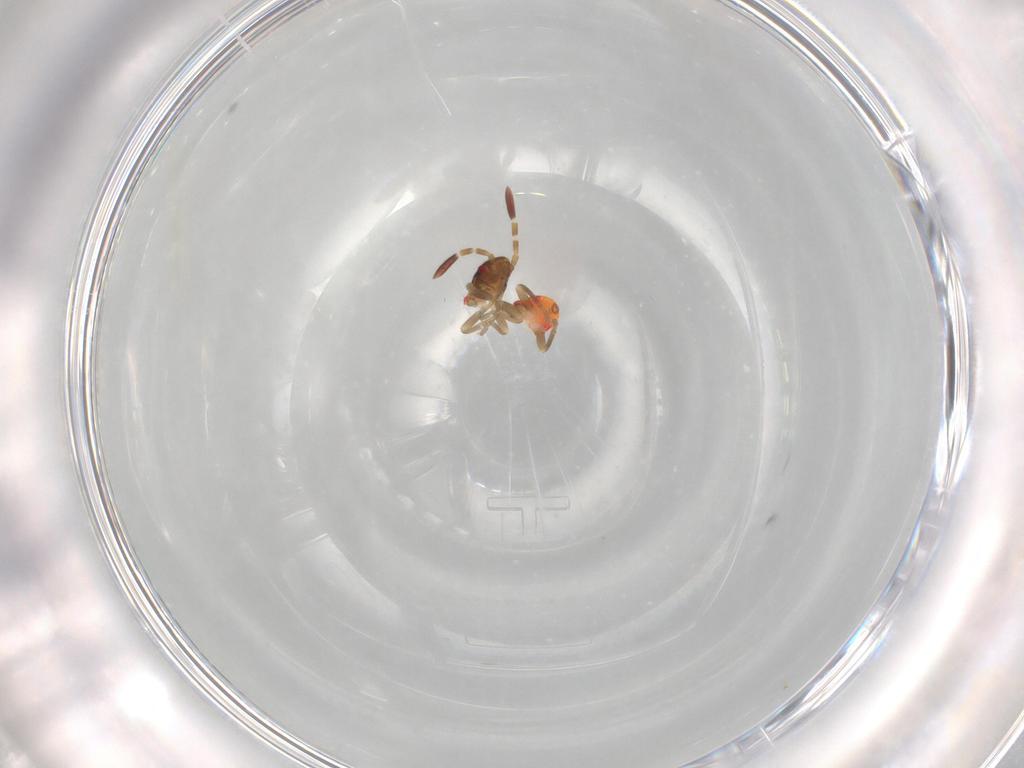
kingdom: Animalia
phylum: Arthropoda
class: Insecta
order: Hemiptera
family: Rhyparochromidae
